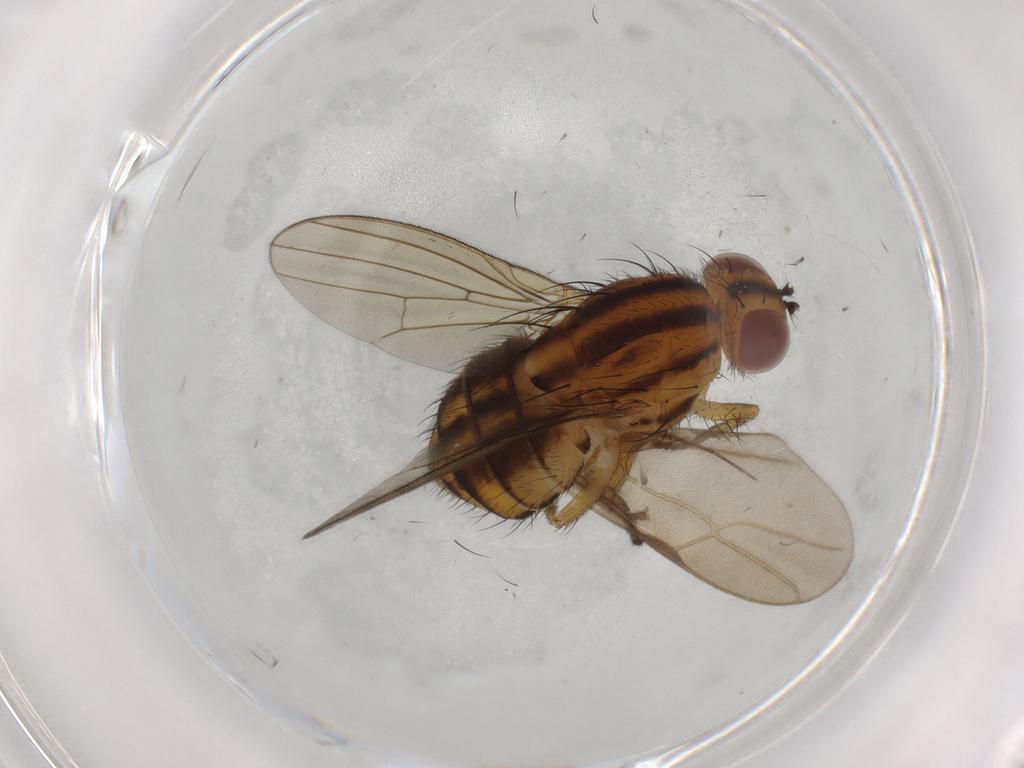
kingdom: Animalia
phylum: Arthropoda
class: Insecta
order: Diptera
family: Dolichopodidae
